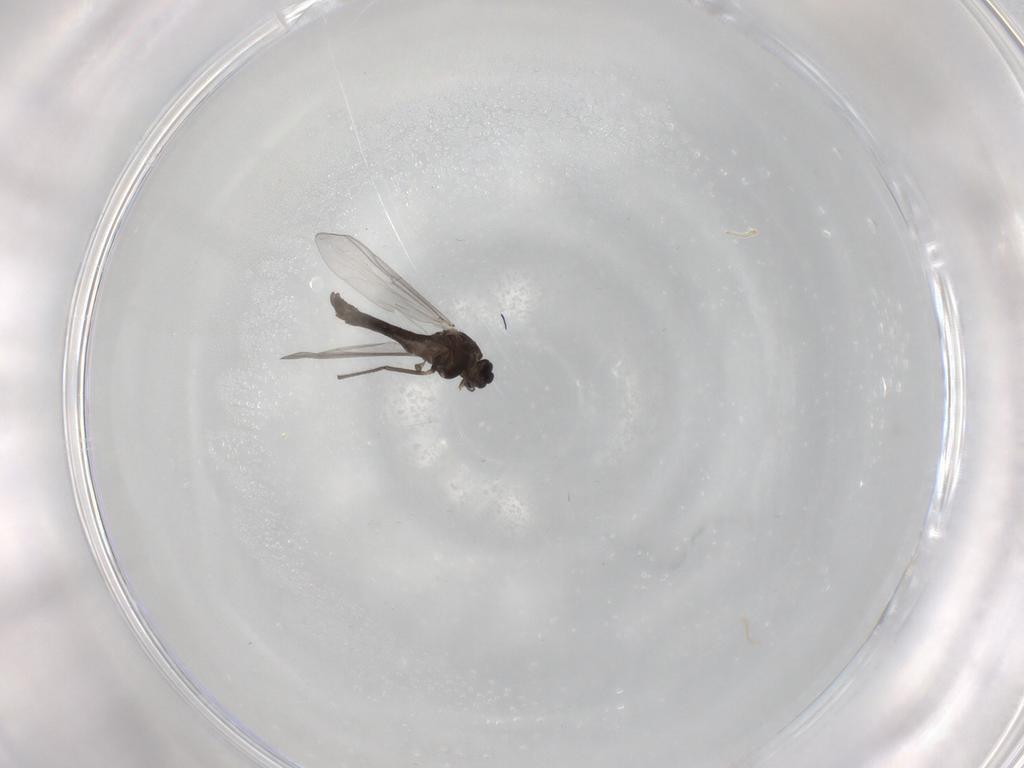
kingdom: Animalia
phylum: Arthropoda
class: Insecta
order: Diptera
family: Chironomidae
